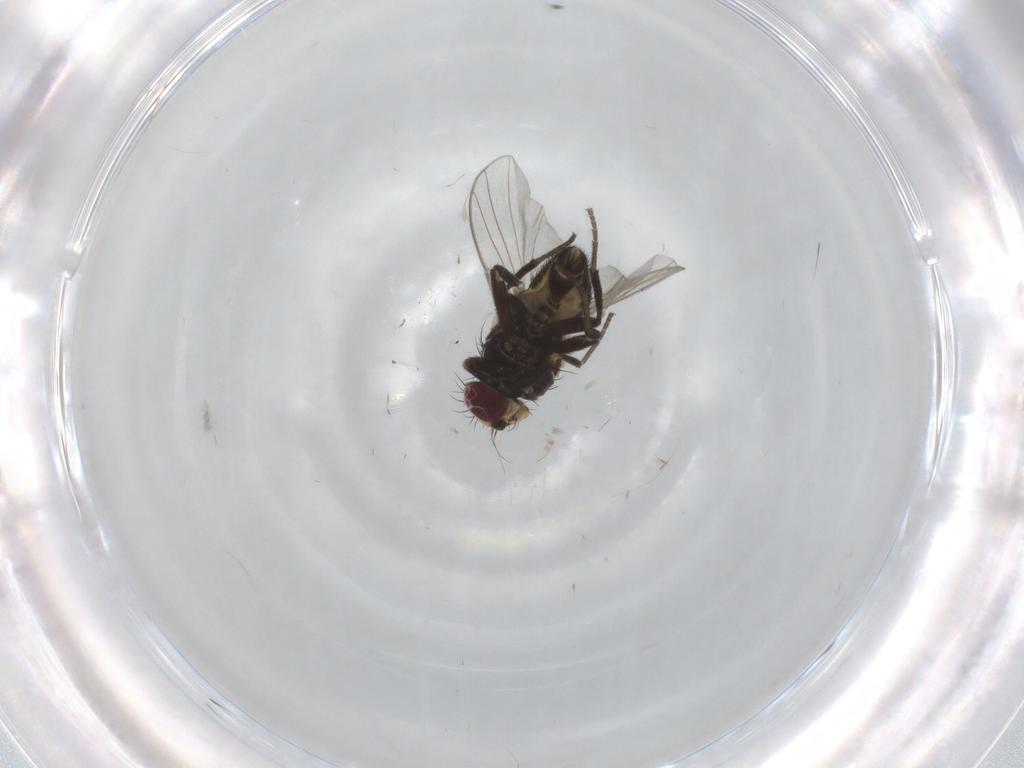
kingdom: Animalia
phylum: Arthropoda
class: Insecta
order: Diptera
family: Agromyzidae
